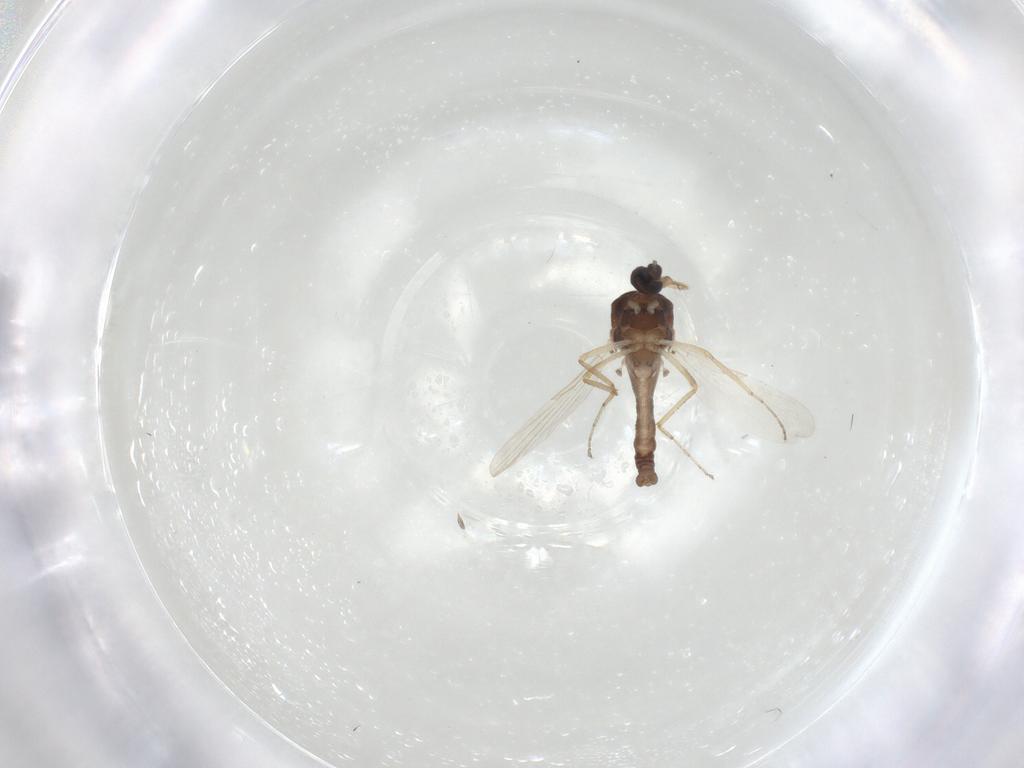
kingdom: Animalia
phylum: Arthropoda
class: Insecta
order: Diptera
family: Ceratopogonidae
